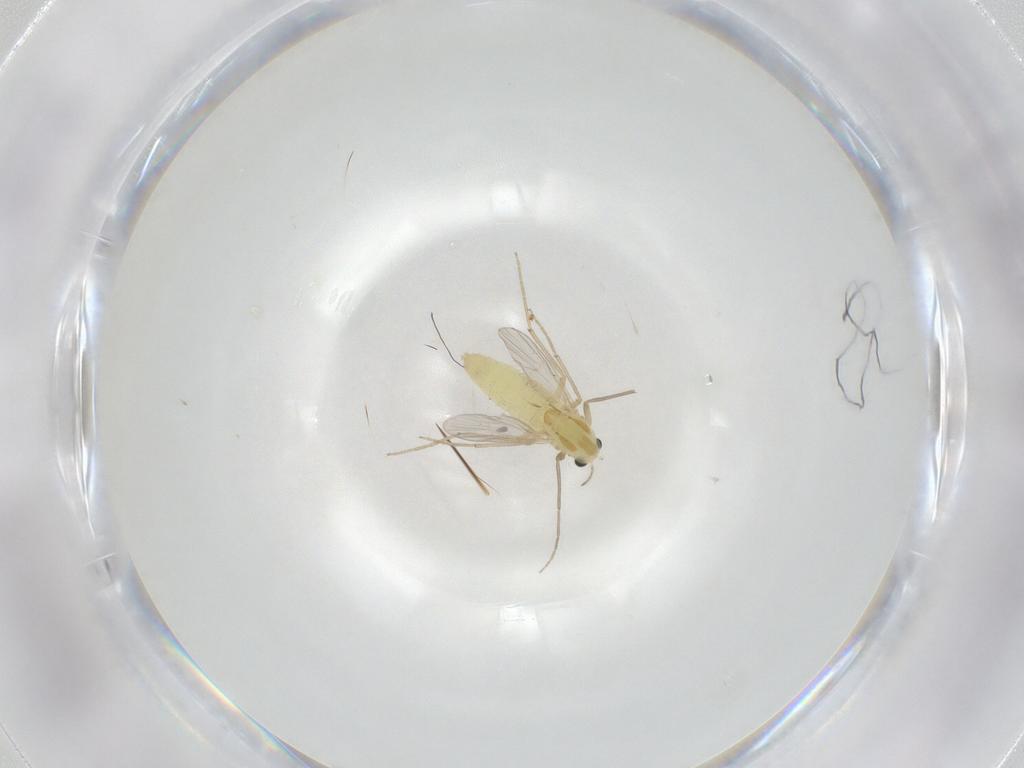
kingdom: Animalia
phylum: Arthropoda
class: Insecta
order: Diptera
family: Chironomidae
